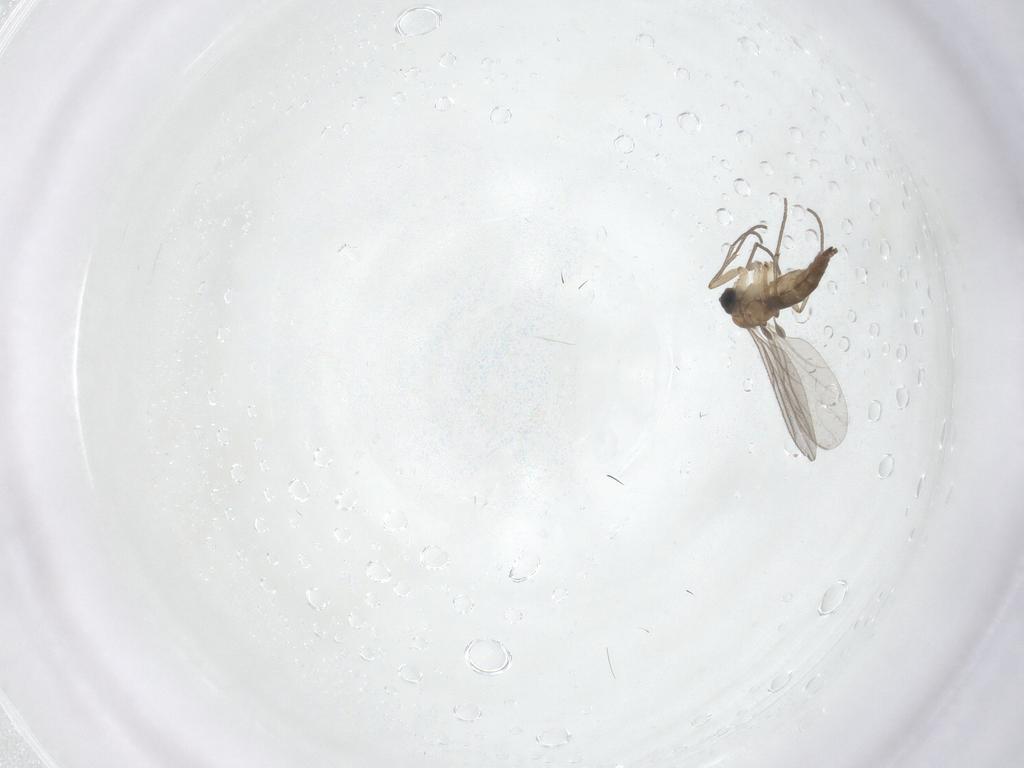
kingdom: Animalia
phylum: Arthropoda
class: Insecta
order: Diptera
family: Sciaridae
